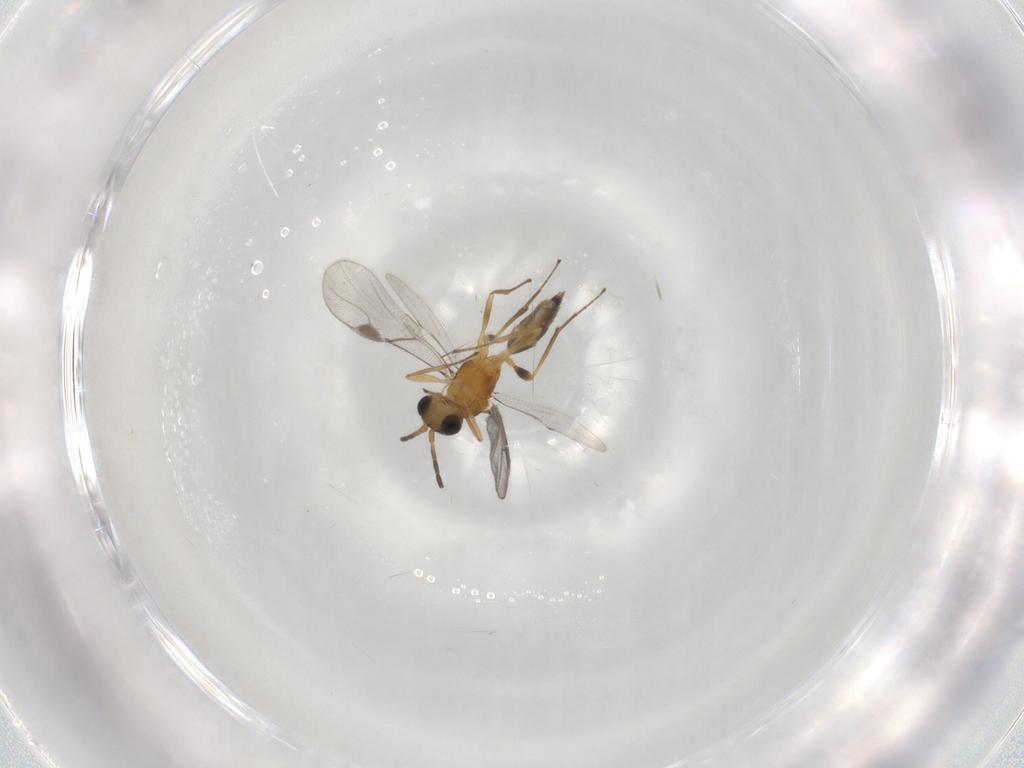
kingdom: Animalia
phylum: Arthropoda
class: Insecta
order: Hymenoptera
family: Braconidae
